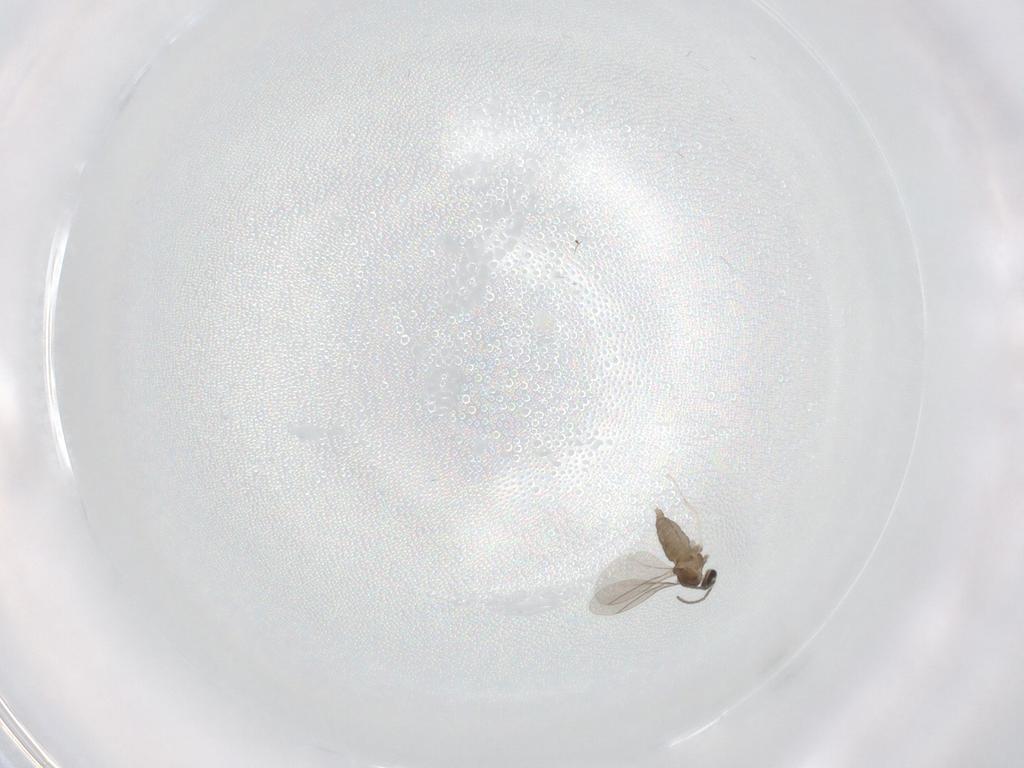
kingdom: Animalia
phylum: Arthropoda
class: Insecta
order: Diptera
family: Cecidomyiidae
